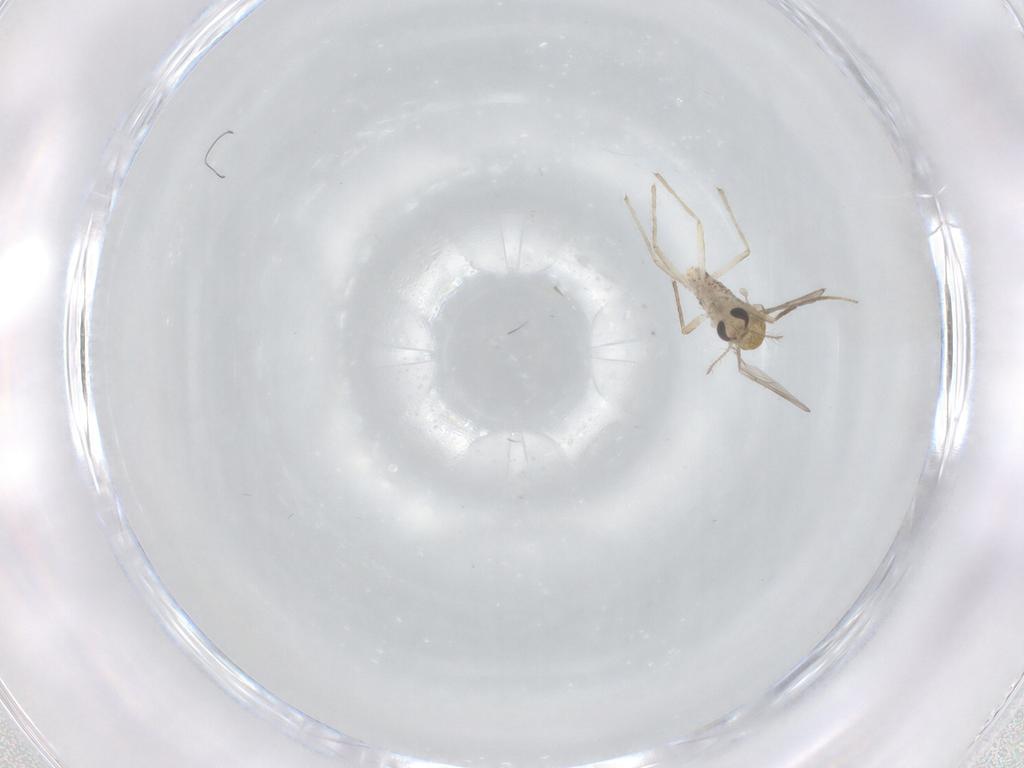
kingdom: Animalia
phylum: Arthropoda
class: Insecta
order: Diptera
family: Chironomidae
